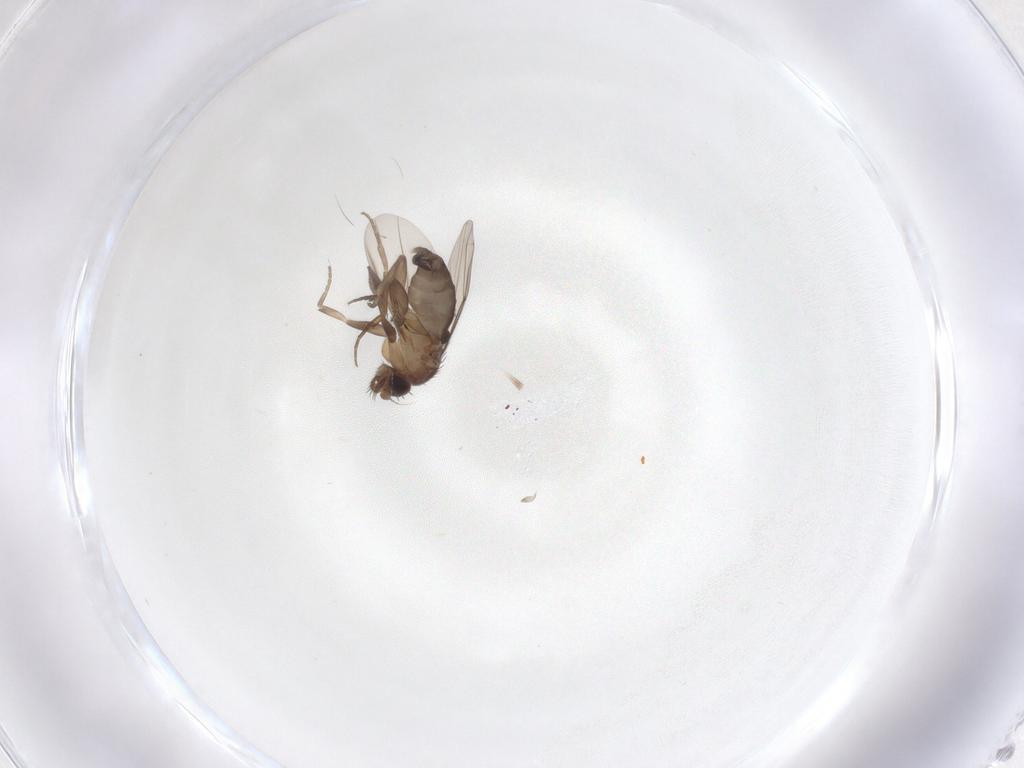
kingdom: Animalia
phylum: Arthropoda
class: Insecta
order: Diptera
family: Phoridae
